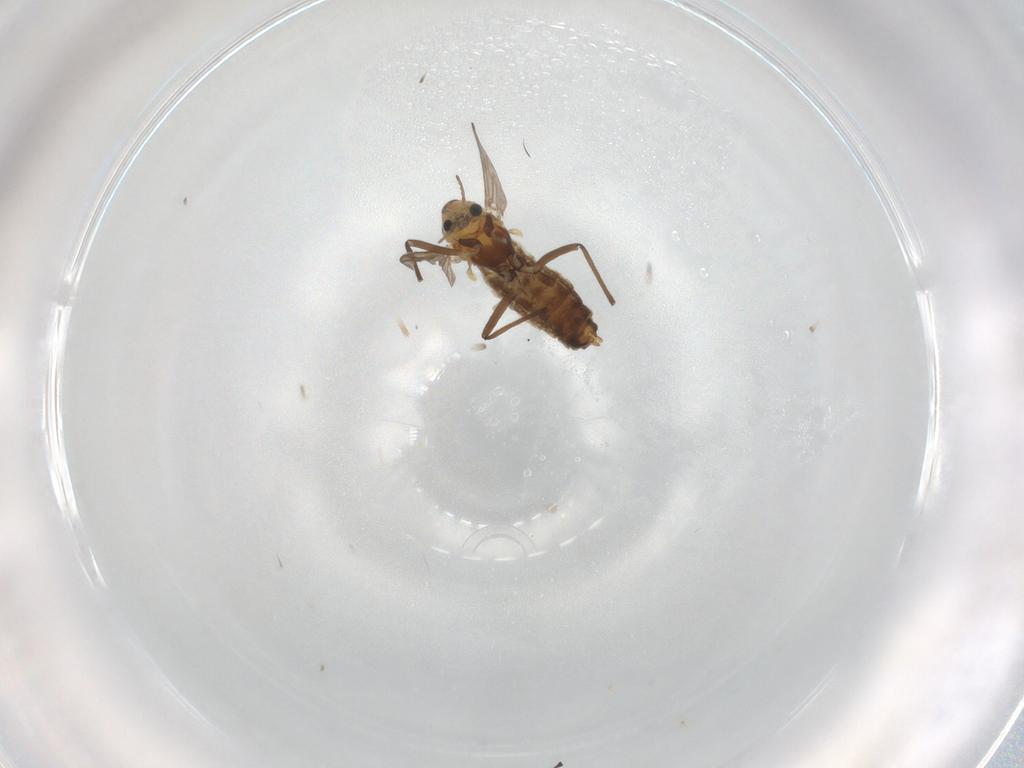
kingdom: Animalia
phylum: Arthropoda
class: Insecta
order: Diptera
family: Chironomidae
